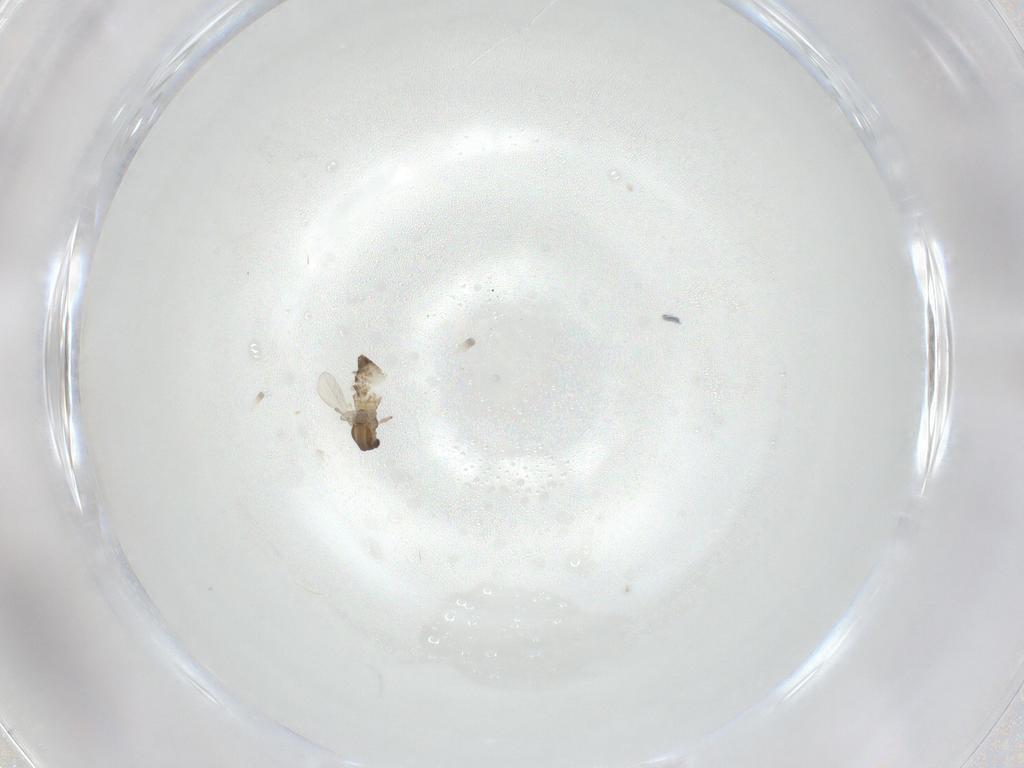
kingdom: Animalia
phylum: Arthropoda
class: Insecta
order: Diptera
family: Chironomidae
